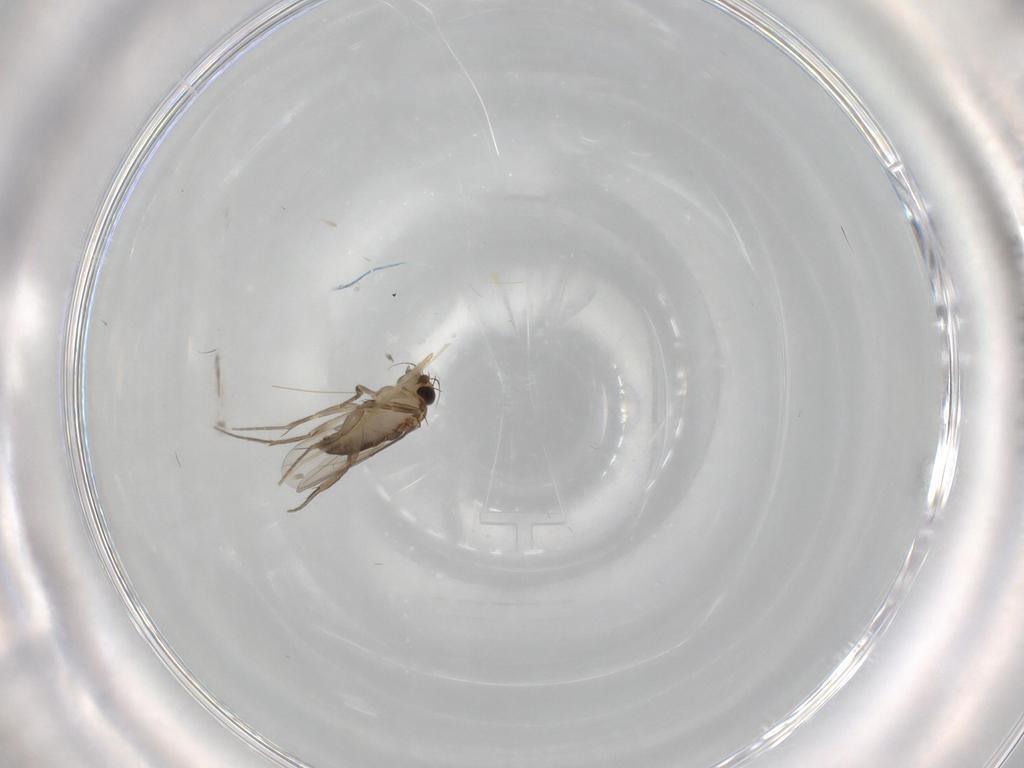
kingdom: Animalia
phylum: Arthropoda
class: Insecta
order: Diptera
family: Phoridae
